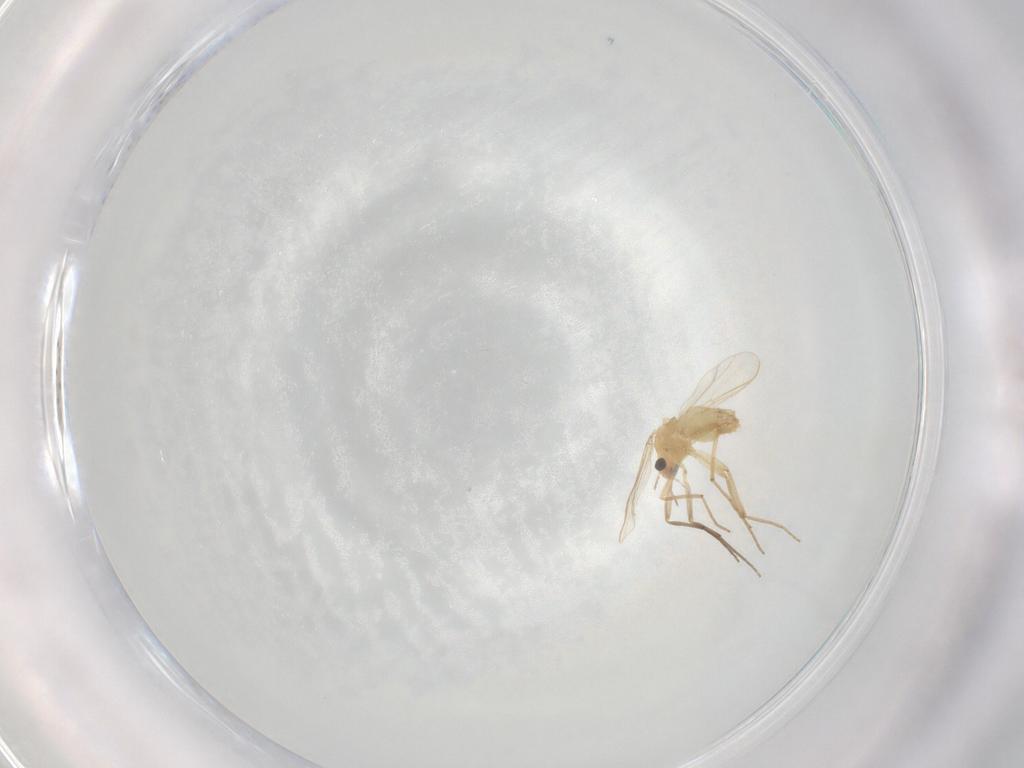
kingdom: Animalia
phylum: Arthropoda
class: Insecta
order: Diptera
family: Chironomidae
